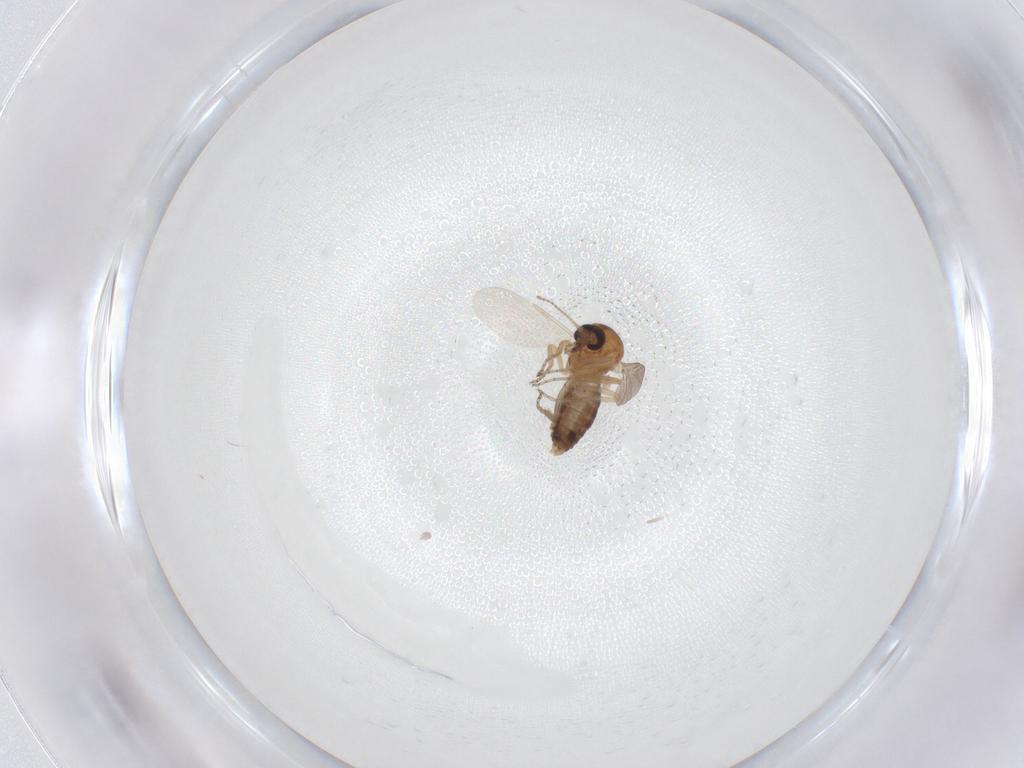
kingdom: Animalia
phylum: Arthropoda
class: Insecta
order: Diptera
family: Ceratopogonidae
